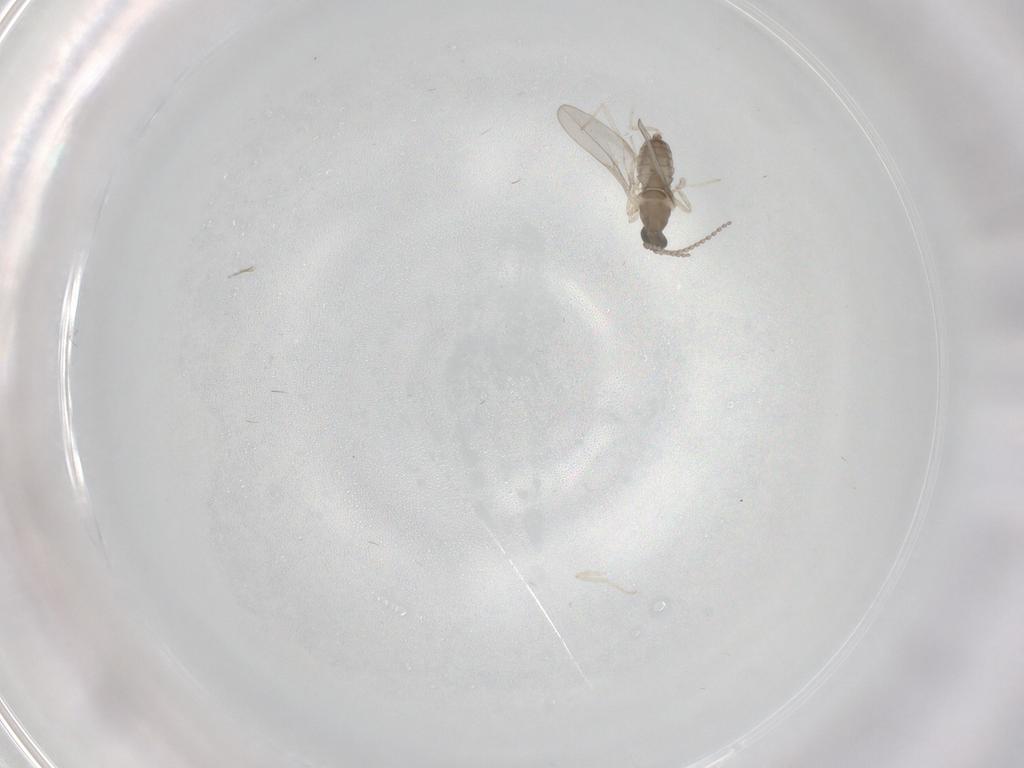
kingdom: Animalia
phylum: Arthropoda
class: Insecta
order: Diptera
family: Cecidomyiidae
